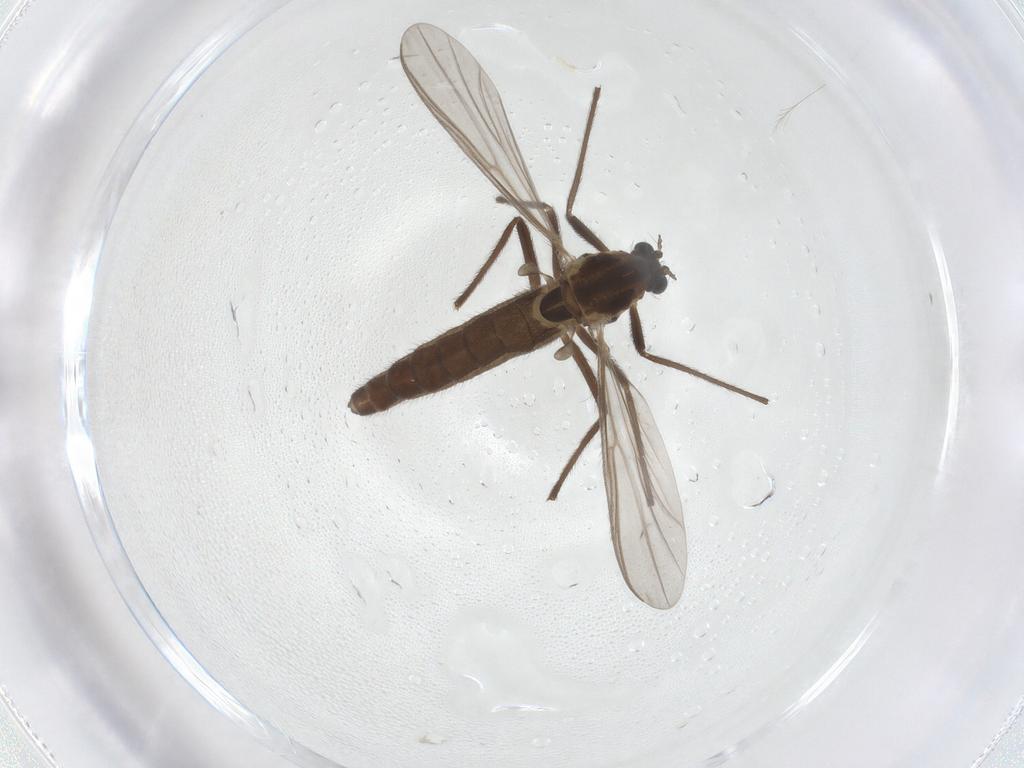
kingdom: Animalia
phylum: Arthropoda
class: Insecta
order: Diptera
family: Chironomidae
